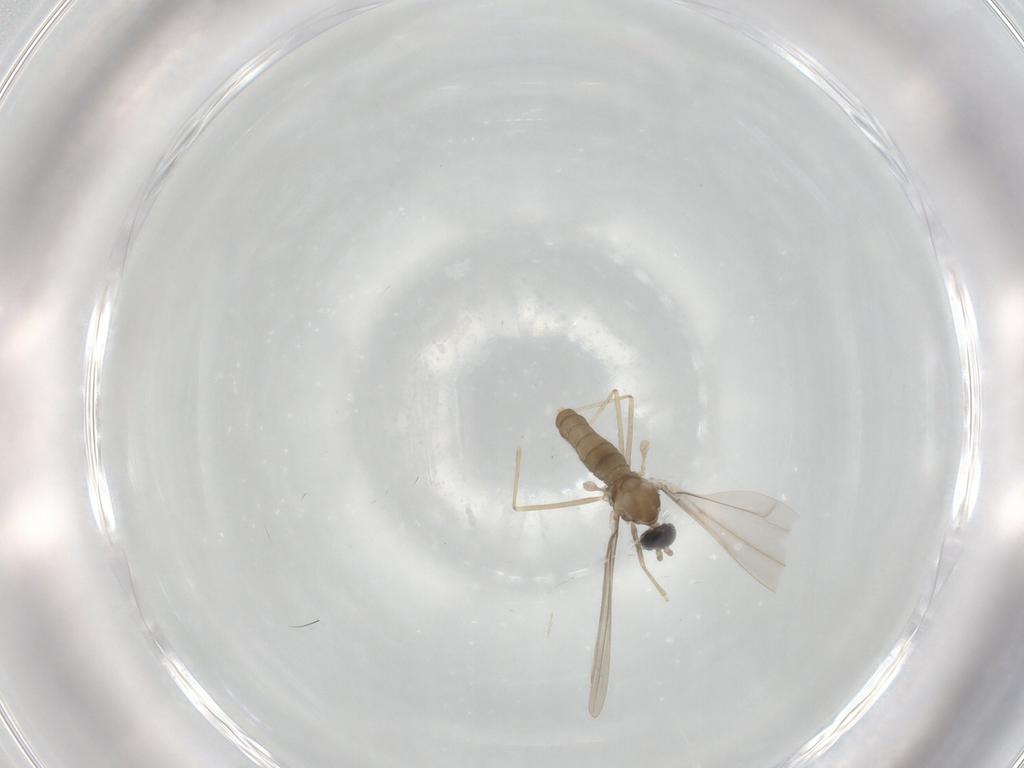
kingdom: Animalia
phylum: Arthropoda
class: Insecta
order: Diptera
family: Cecidomyiidae
